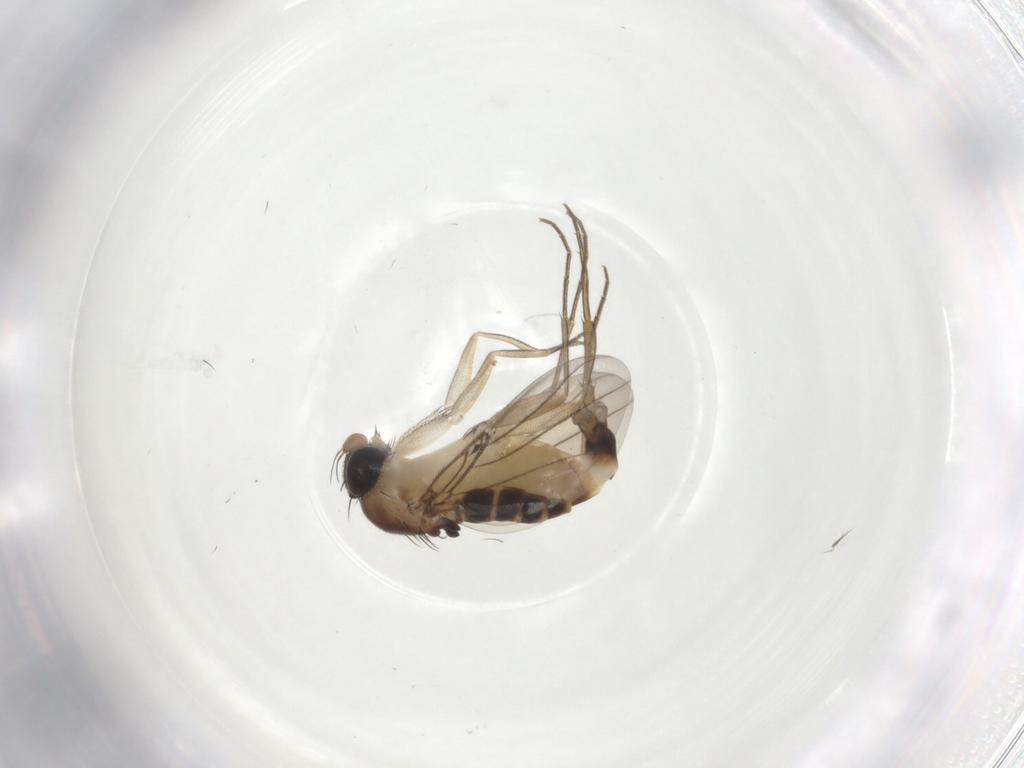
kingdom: Animalia
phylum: Arthropoda
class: Insecta
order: Diptera
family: Phoridae
